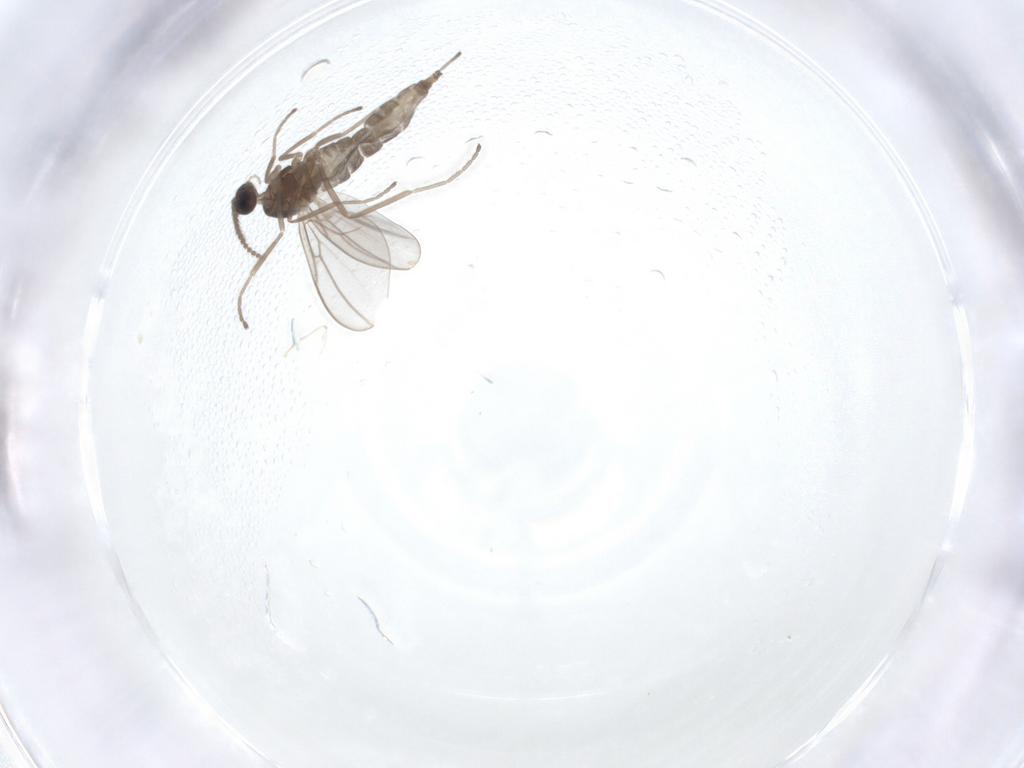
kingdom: Animalia
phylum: Arthropoda
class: Insecta
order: Diptera
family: Cecidomyiidae
